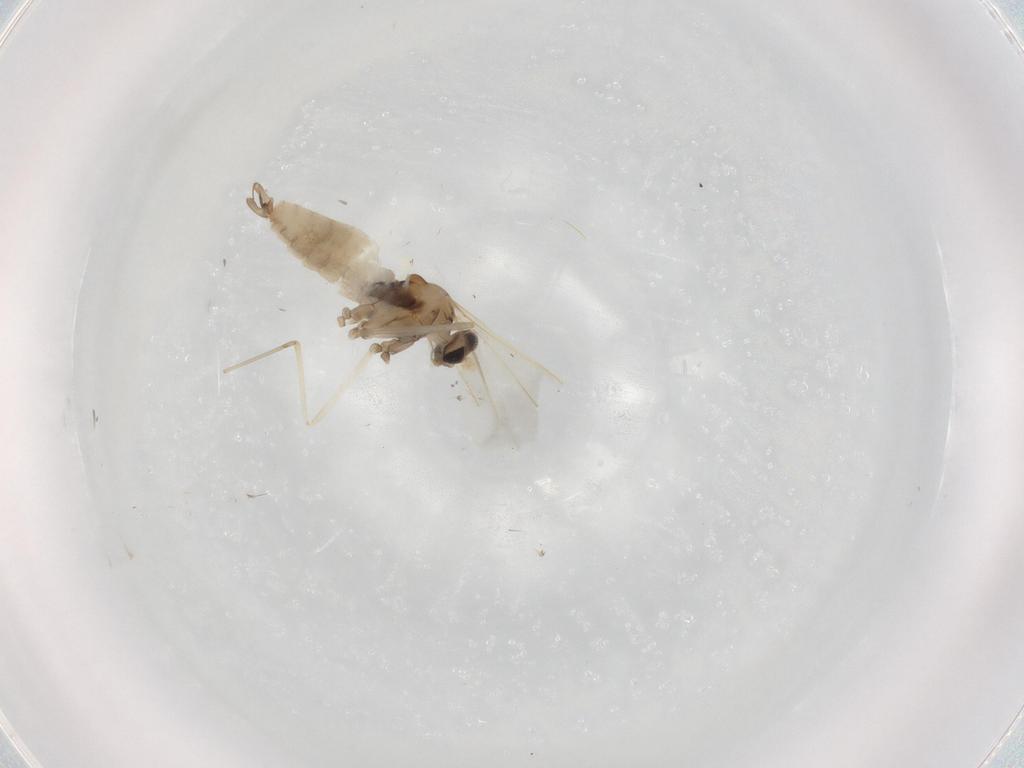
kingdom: Animalia
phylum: Arthropoda
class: Insecta
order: Diptera
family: Cecidomyiidae
